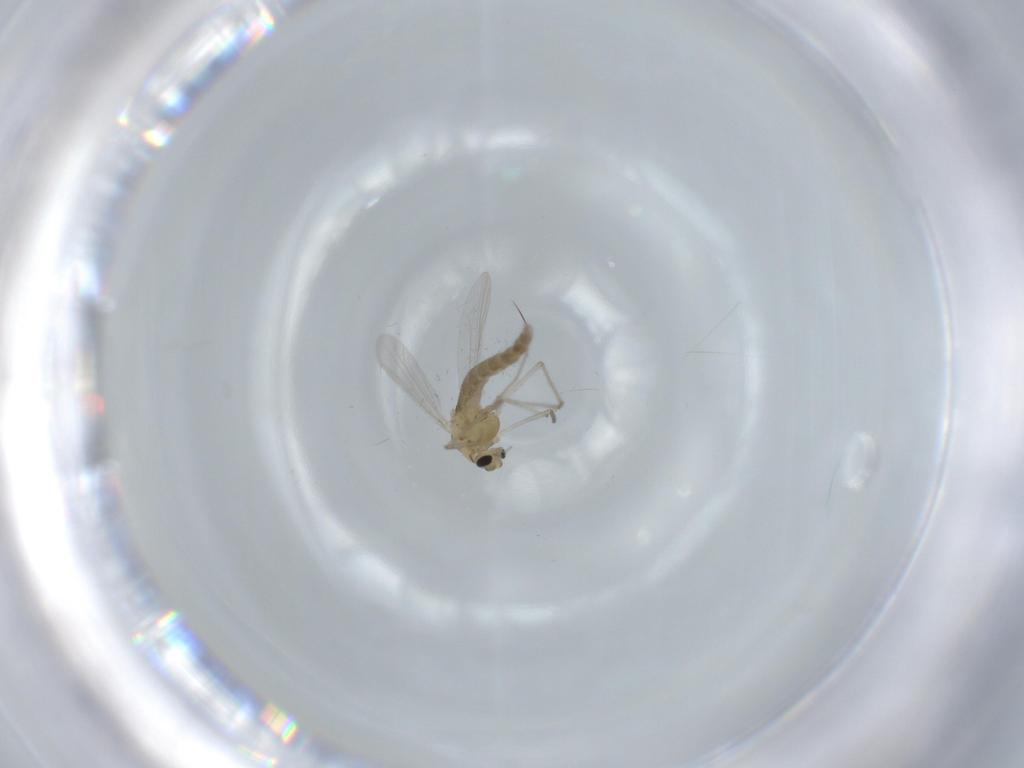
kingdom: Animalia
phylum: Arthropoda
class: Insecta
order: Diptera
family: Chironomidae
